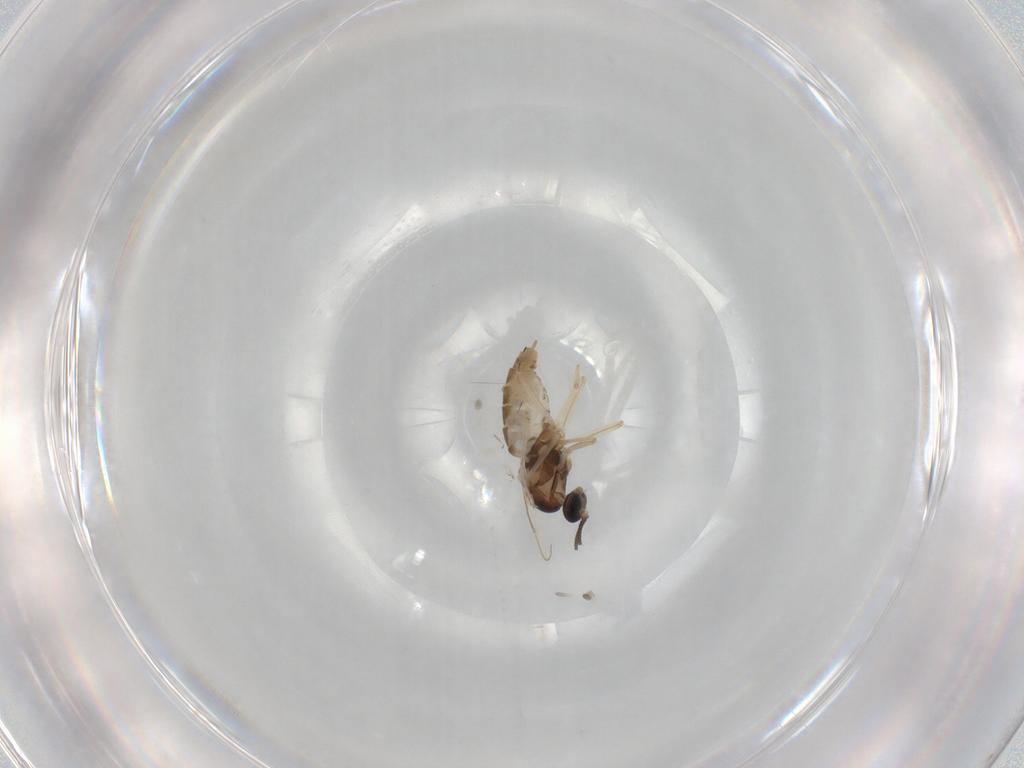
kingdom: Animalia
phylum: Arthropoda
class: Insecta
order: Diptera
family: Cecidomyiidae
